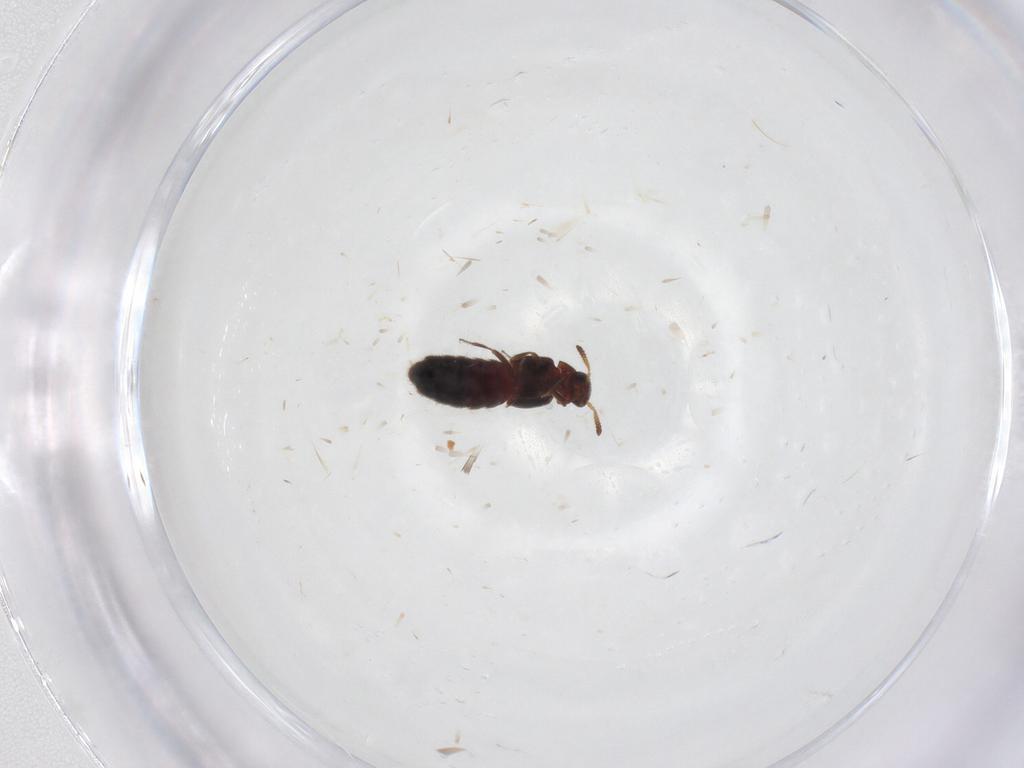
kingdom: Animalia
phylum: Arthropoda
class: Insecta
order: Coleoptera
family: Staphylinidae
